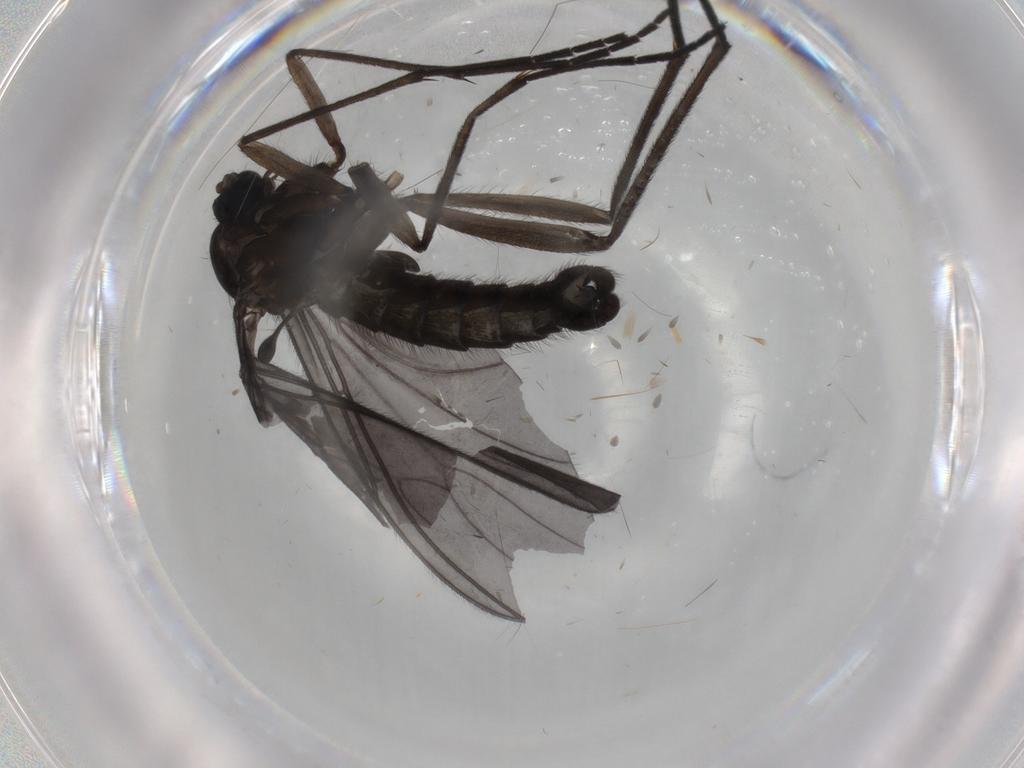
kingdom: Animalia
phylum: Arthropoda
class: Insecta
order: Diptera
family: Sciaridae
